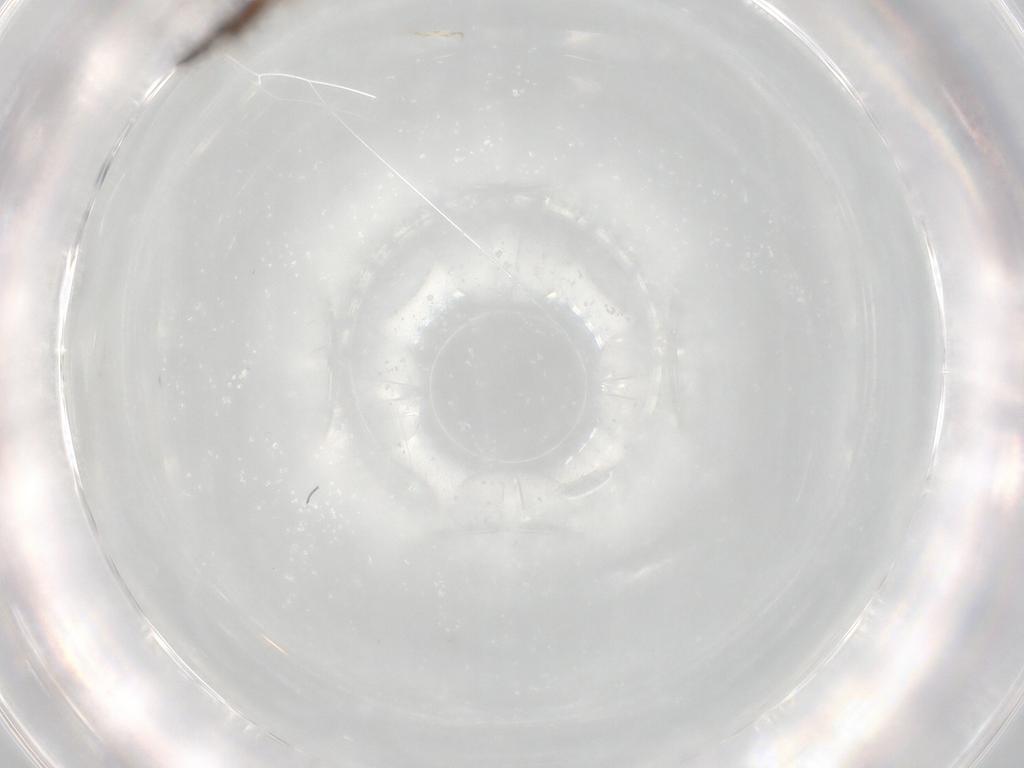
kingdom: Animalia
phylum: Arthropoda
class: Insecta
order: Thysanoptera
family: Thripidae
